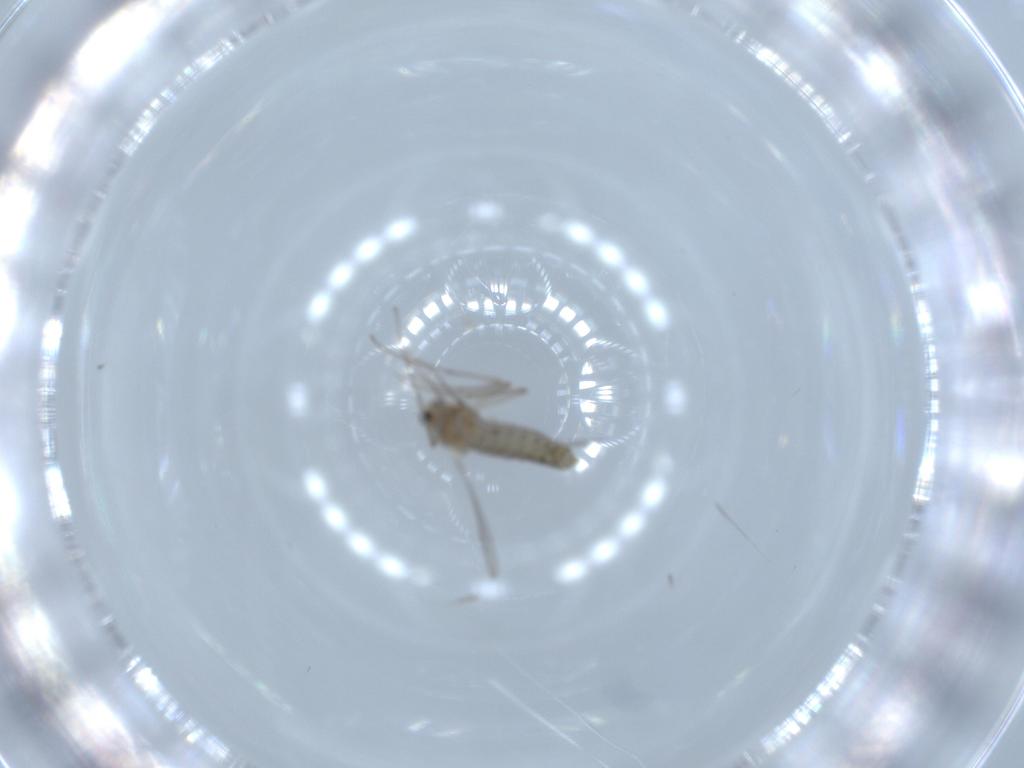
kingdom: Animalia
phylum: Arthropoda
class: Insecta
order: Diptera
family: Chironomidae
